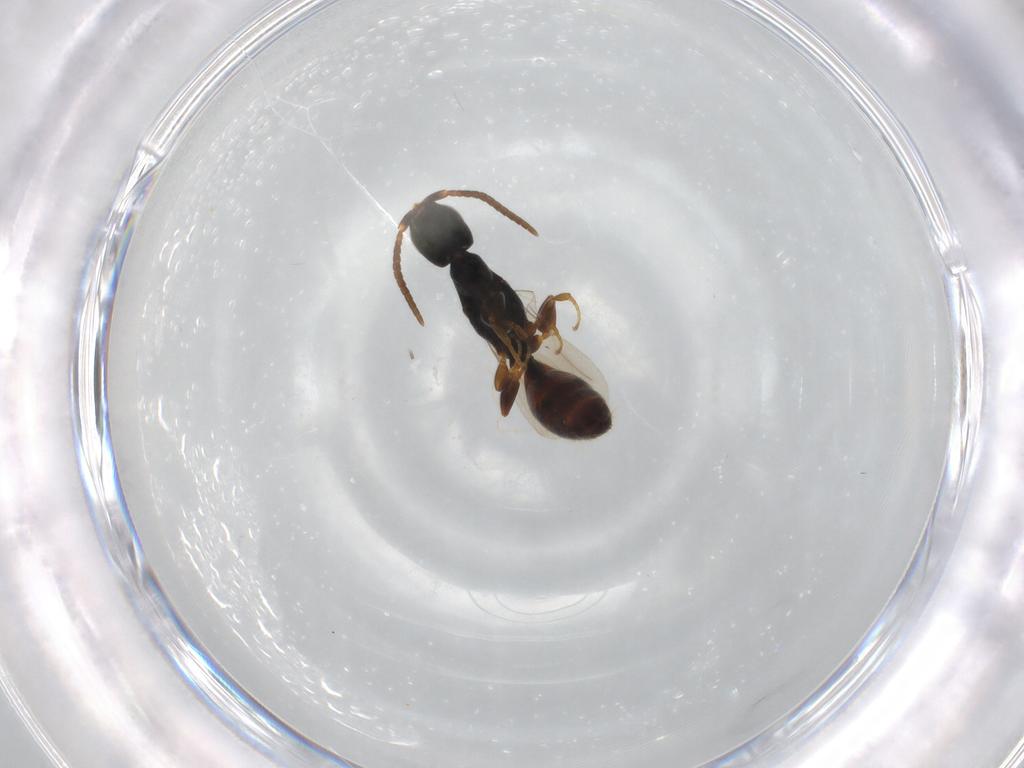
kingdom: Animalia
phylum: Arthropoda
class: Insecta
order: Hymenoptera
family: Bethylidae
